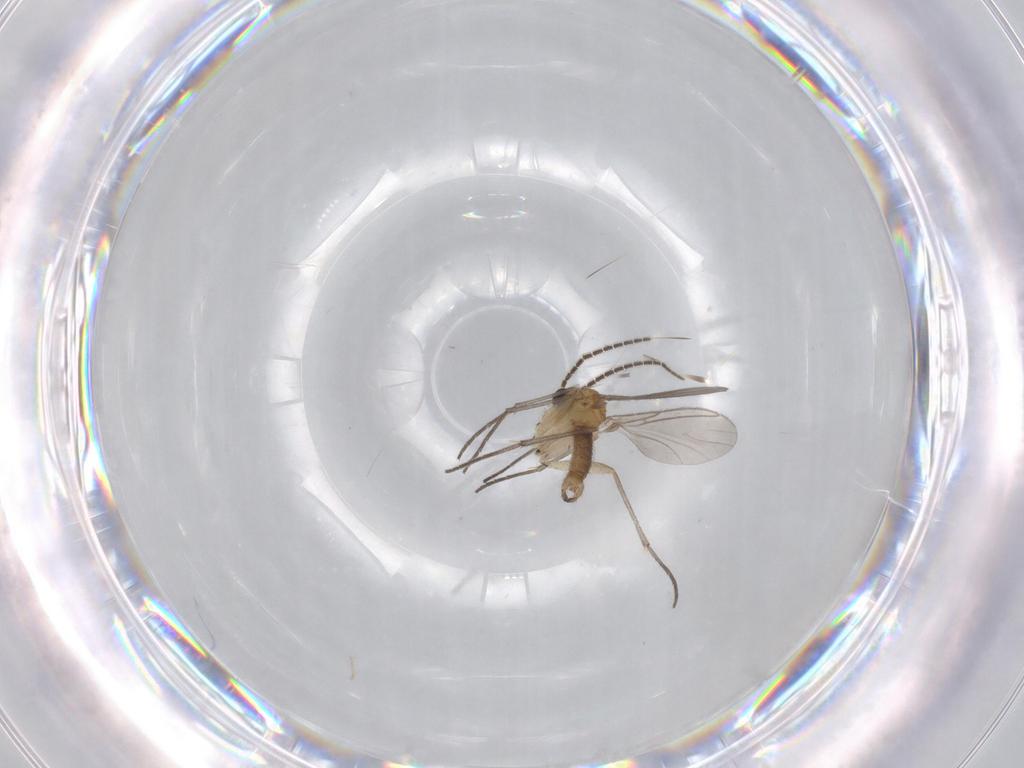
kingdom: Animalia
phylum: Arthropoda
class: Insecta
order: Diptera
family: Sciaridae
